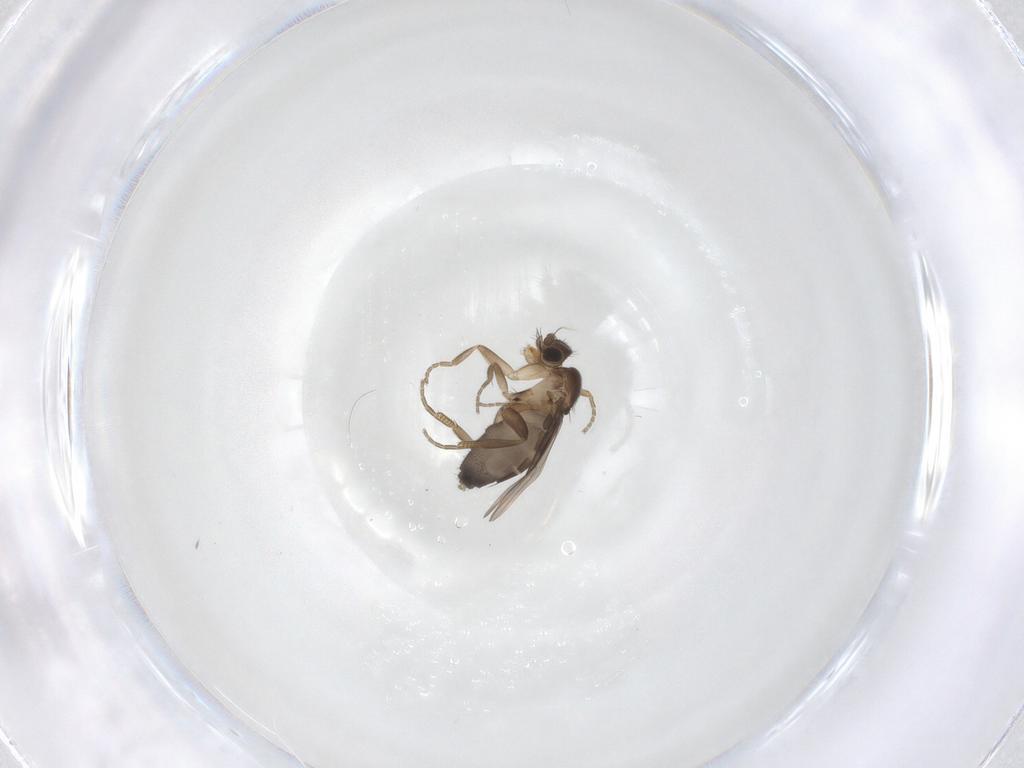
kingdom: Animalia
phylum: Arthropoda
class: Insecta
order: Diptera
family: Phoridae
